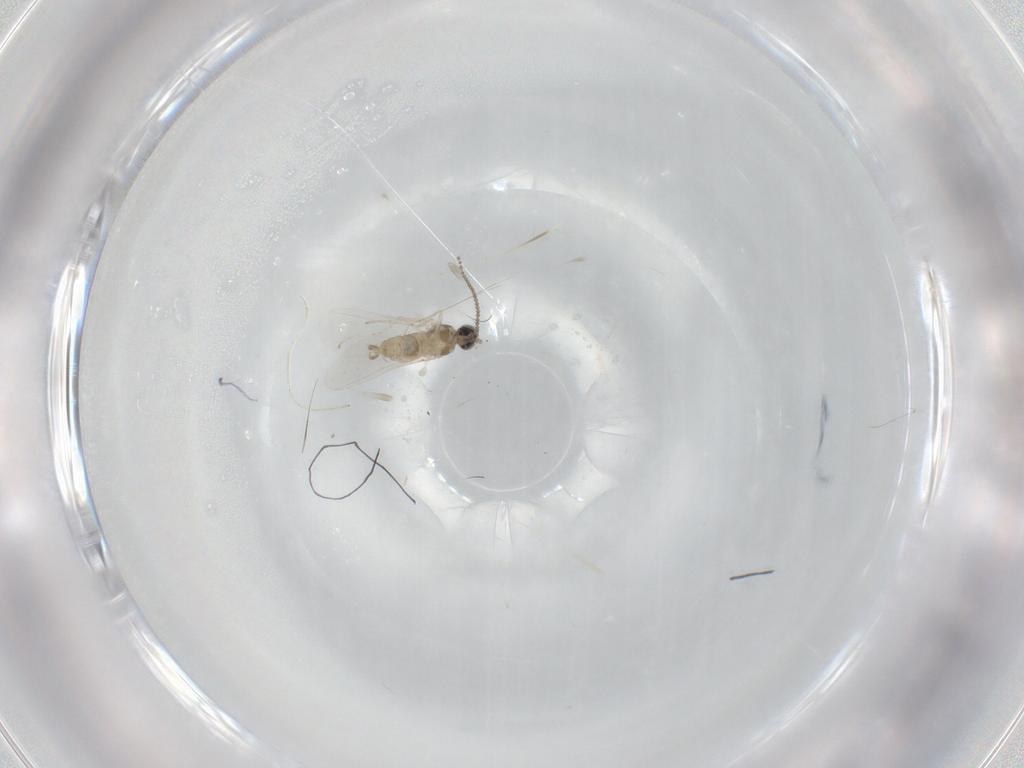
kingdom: Animalia
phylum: Arthropoda
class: Insecta
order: Diptera
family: Cecidomyiidae
